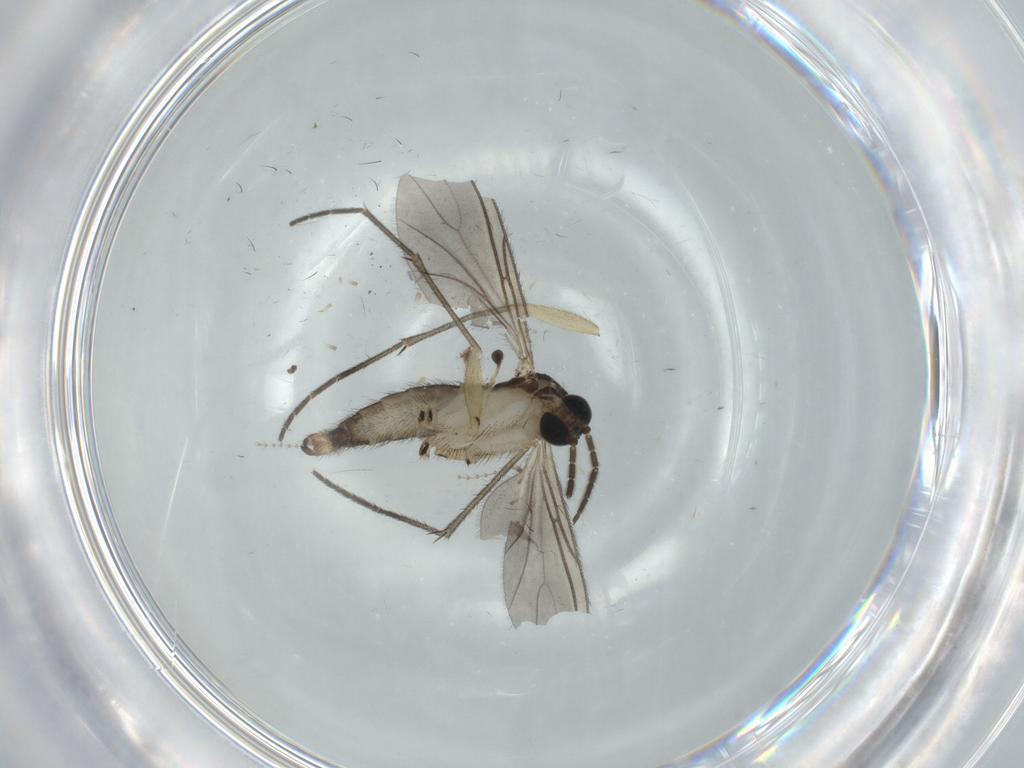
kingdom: Animalia
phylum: Arthropoda
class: Insecta
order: Diptera
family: Sciaridae
